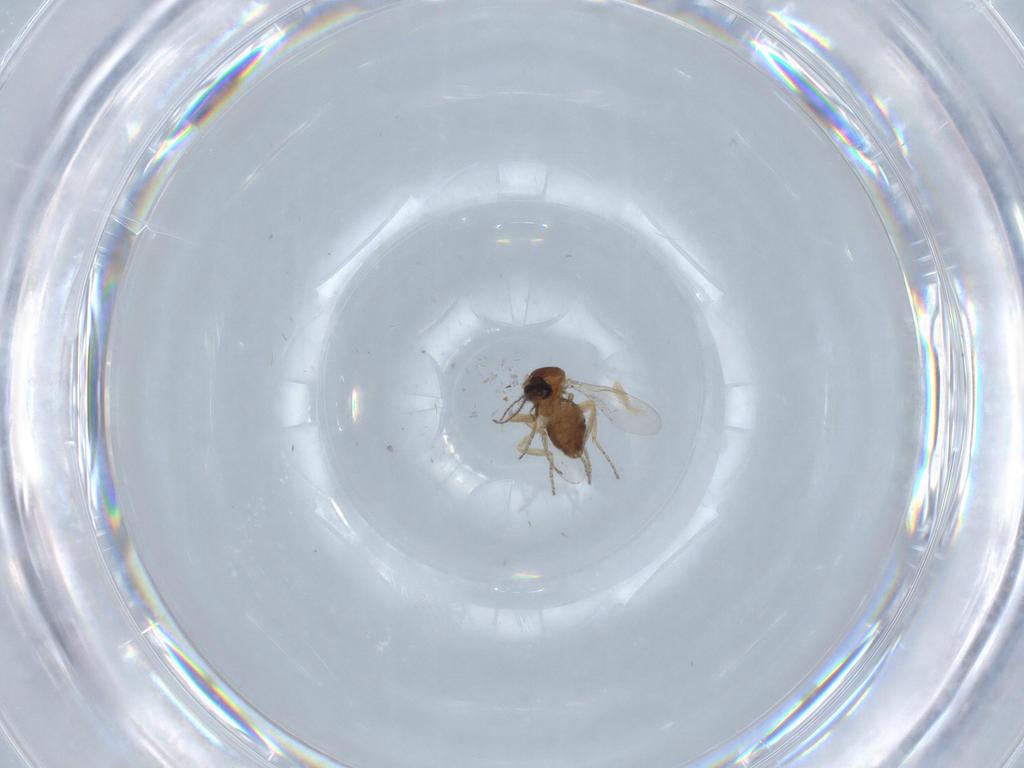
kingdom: Animalia
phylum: Arthropoda
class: Insecta
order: Diptera
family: Ceratopogonidae
